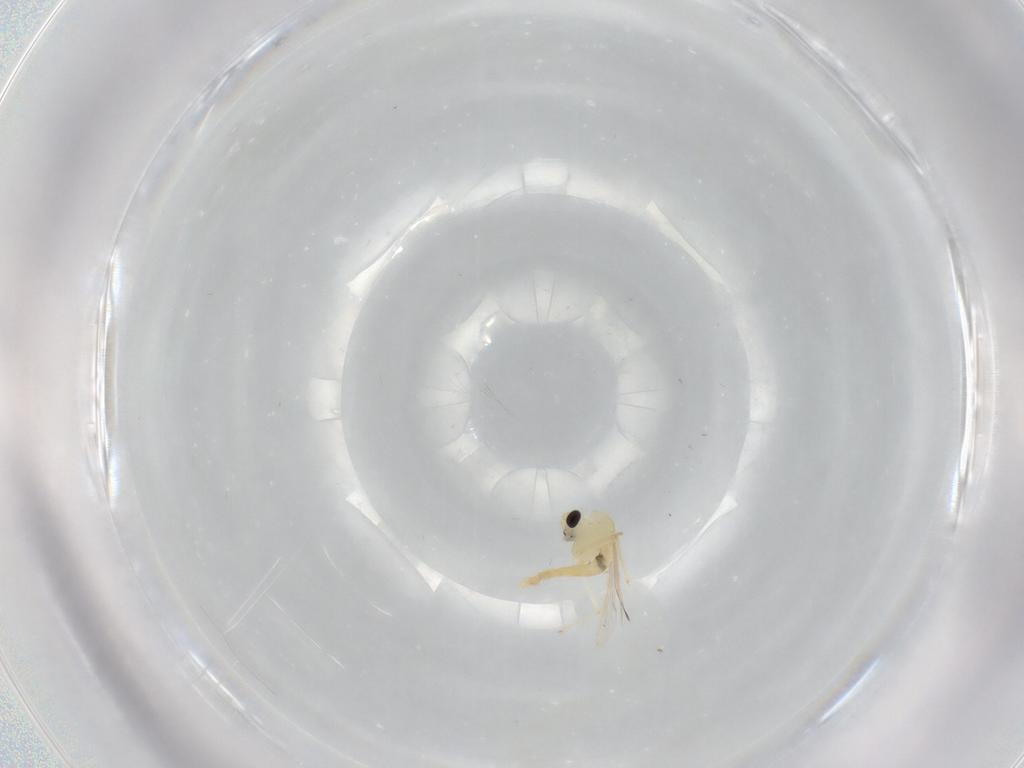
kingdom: Animalia
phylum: Arthropoda
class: Insecta
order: Diptera
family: Chironomidae
